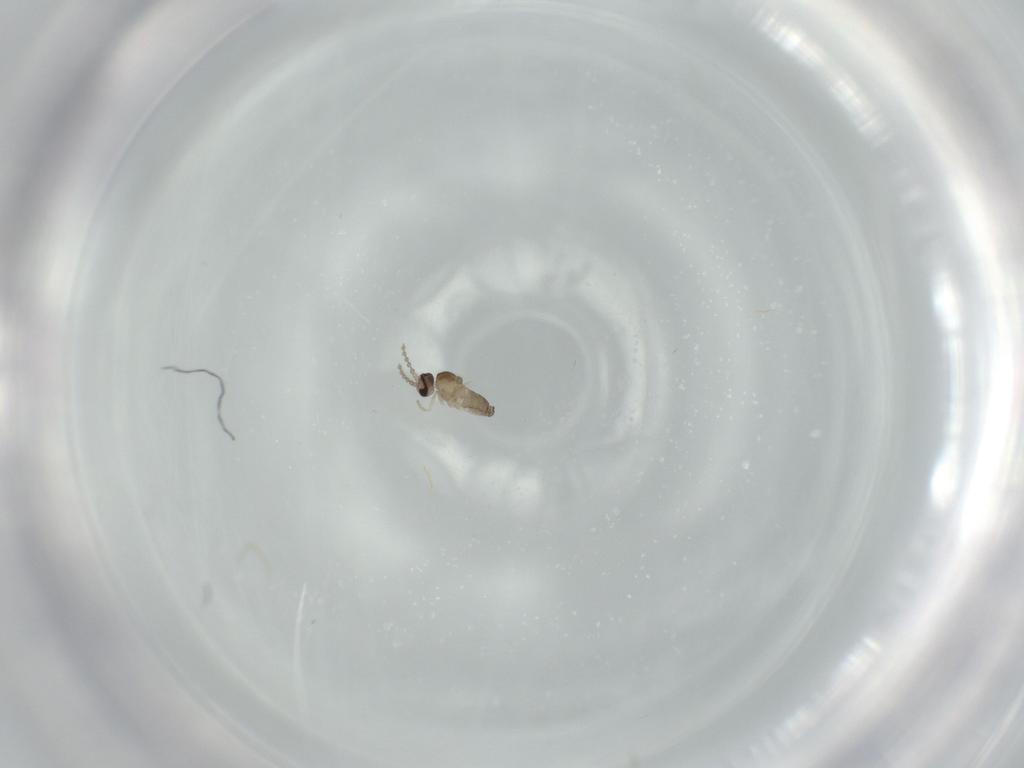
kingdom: Animalia
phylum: Arthropoda
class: Insecta
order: Diptera
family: Cecidomyiidae
